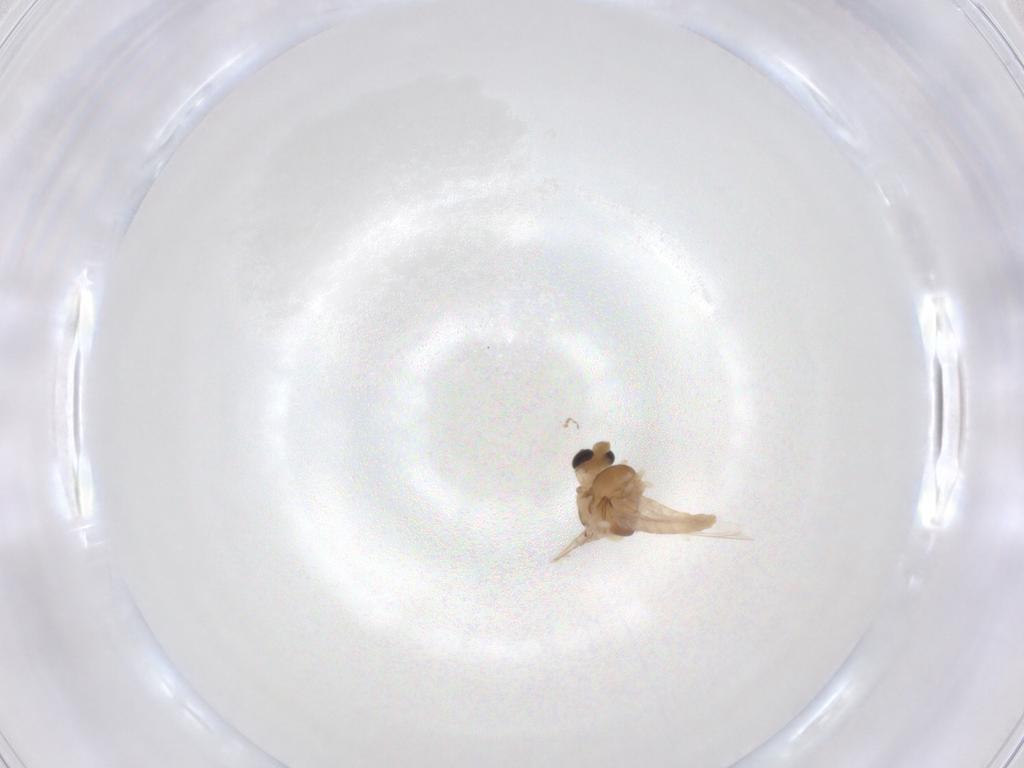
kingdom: Animalia
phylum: Arthropoda
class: Insecta
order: Diptera
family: Chironomidae
